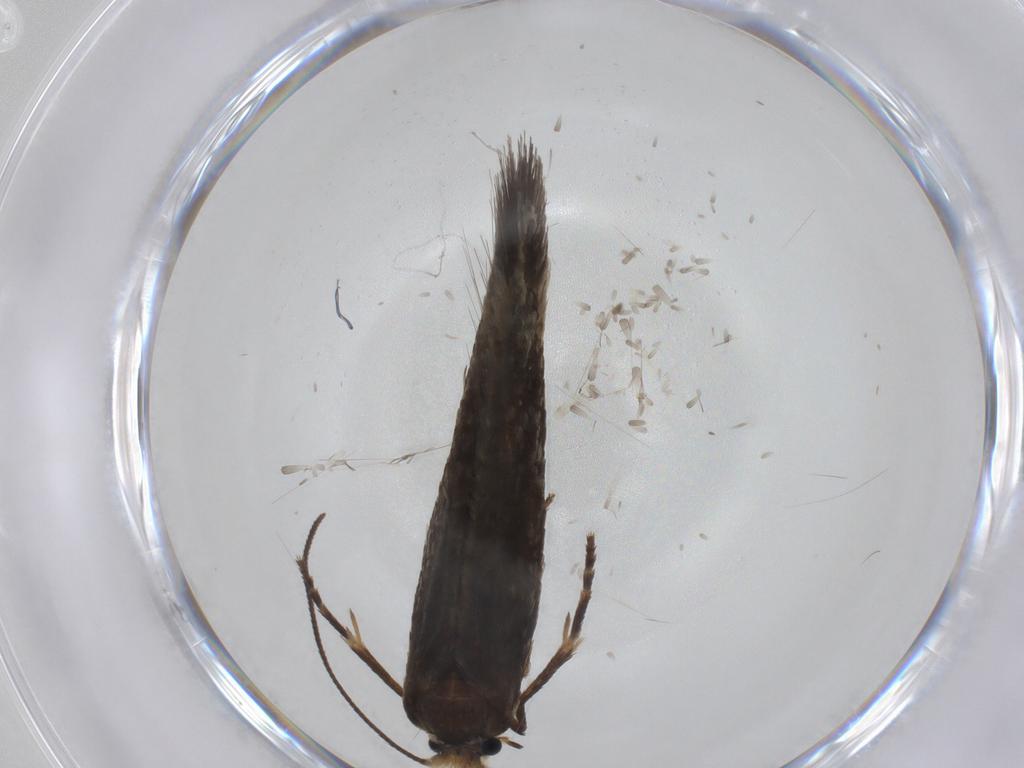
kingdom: Animalia
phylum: Arthropoda
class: Insecta
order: Lepidoptera
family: Nepticulidae
